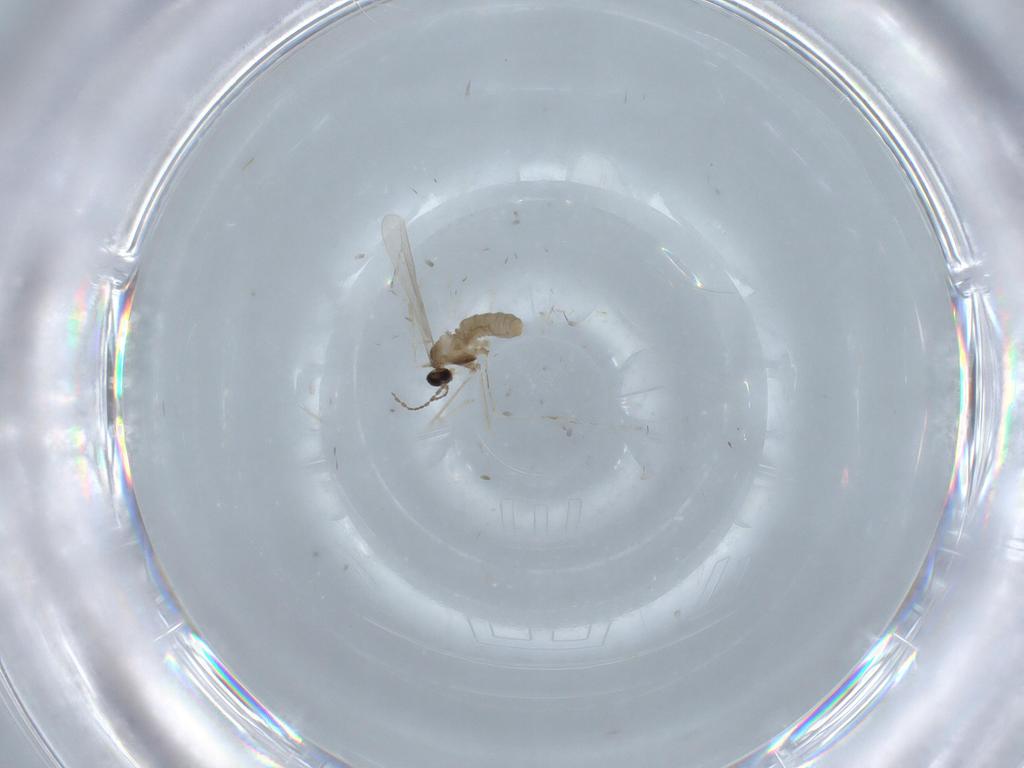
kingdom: Animalia
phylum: Arthropoda
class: Insecta
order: Diptera
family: Cecidomyiidae
